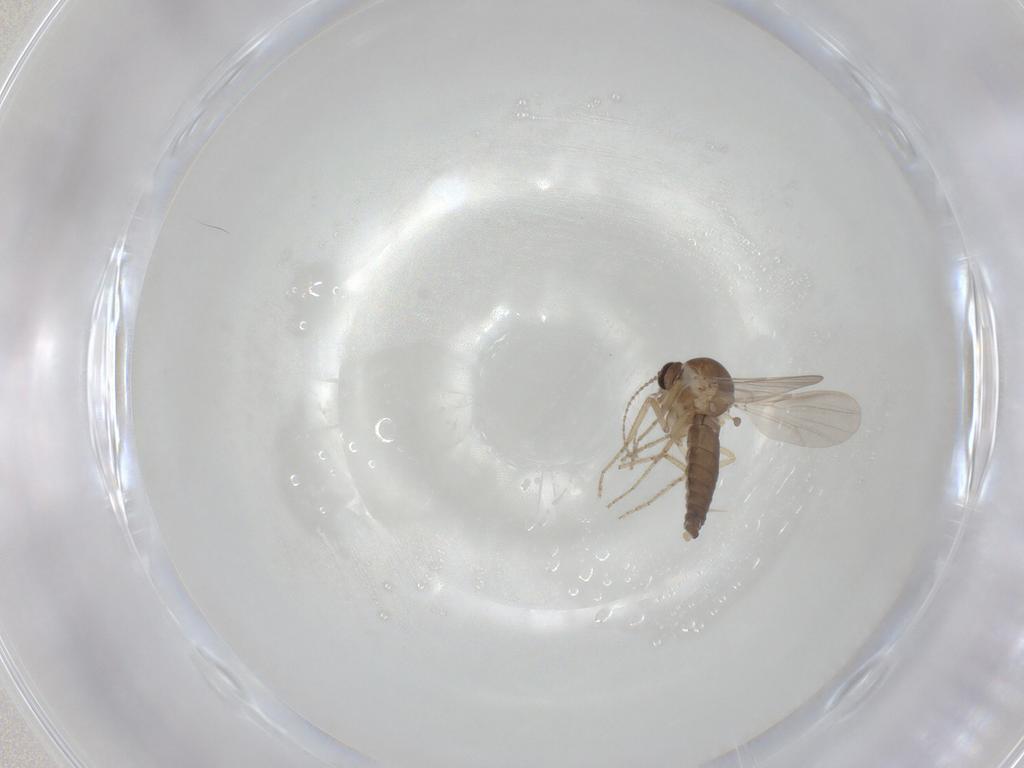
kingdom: Animalia
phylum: Arthropoda
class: Insecta
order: Diptera
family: Ceratopogonidae
